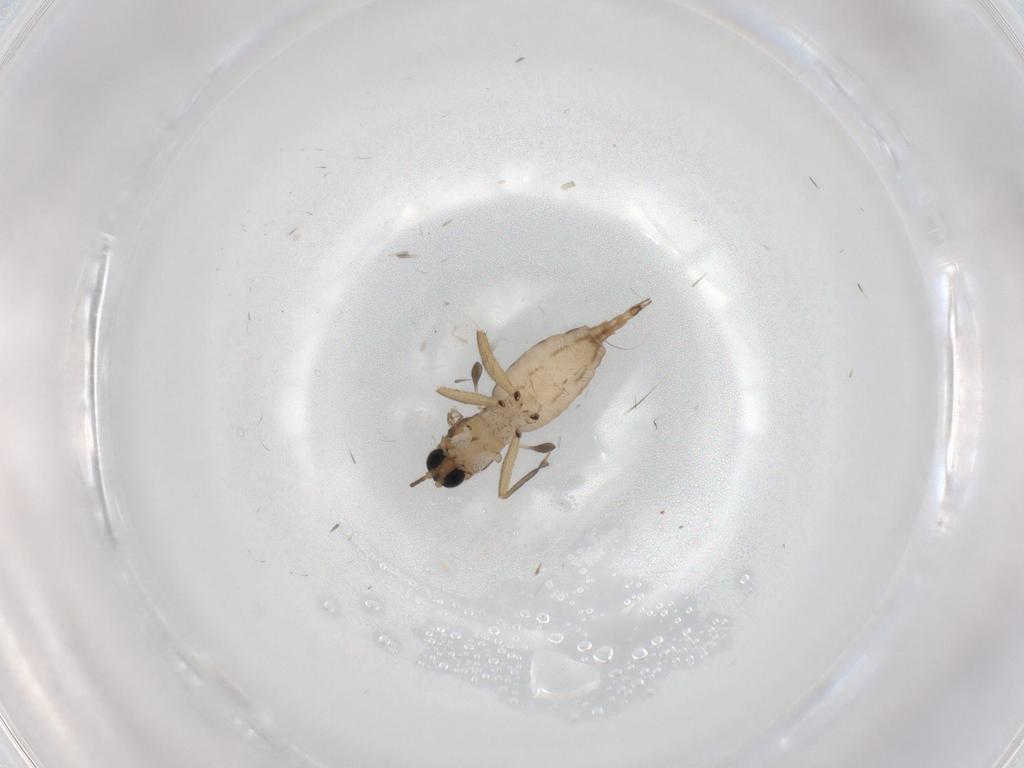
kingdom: Animalia
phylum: Arthropoda
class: Insecta
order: Diptera
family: Sciaridae
